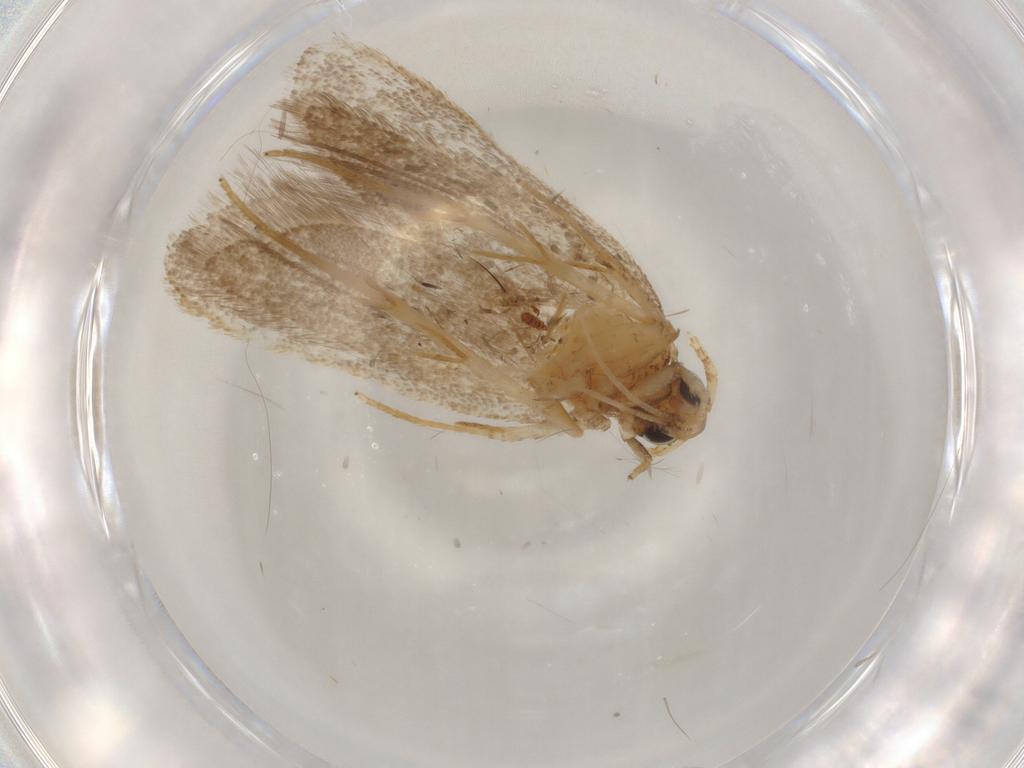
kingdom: Animalia
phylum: Arthropoda
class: Insecta
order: Lepidoptera
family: Lecithoceridae
